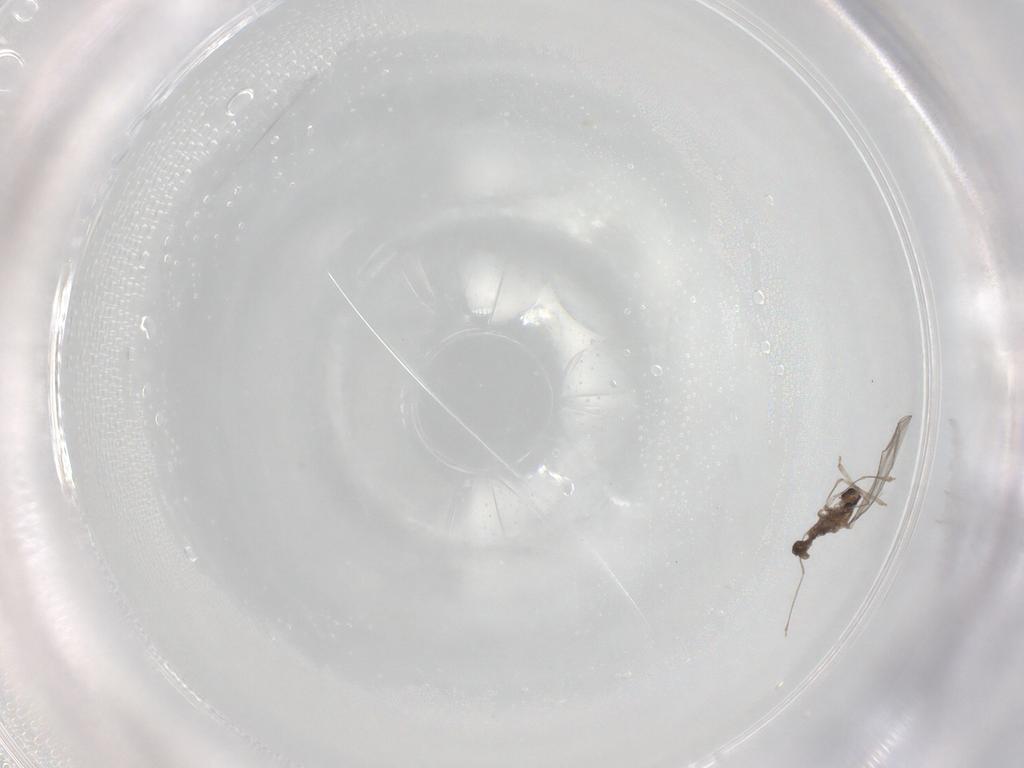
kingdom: Animalia
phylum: Arthropoda
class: Insecta
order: Diptera
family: Cecidomyiidae
